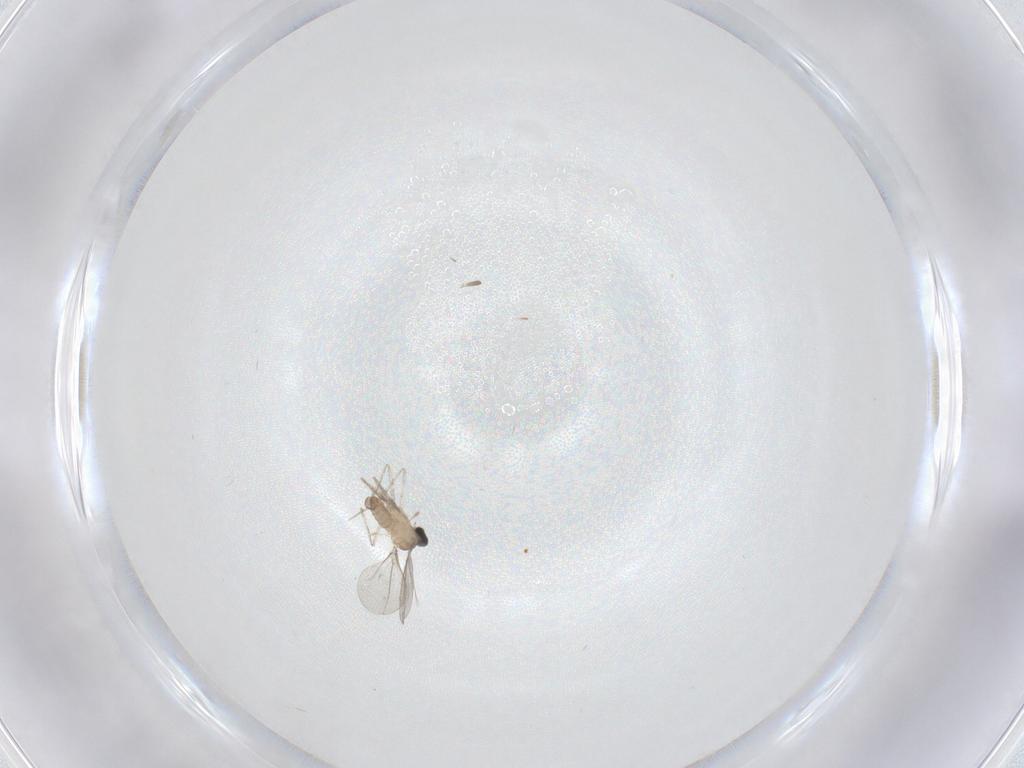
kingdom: Animalia
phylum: Arthropoda
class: Insecta
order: Diptera
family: Cecidomyiidae
